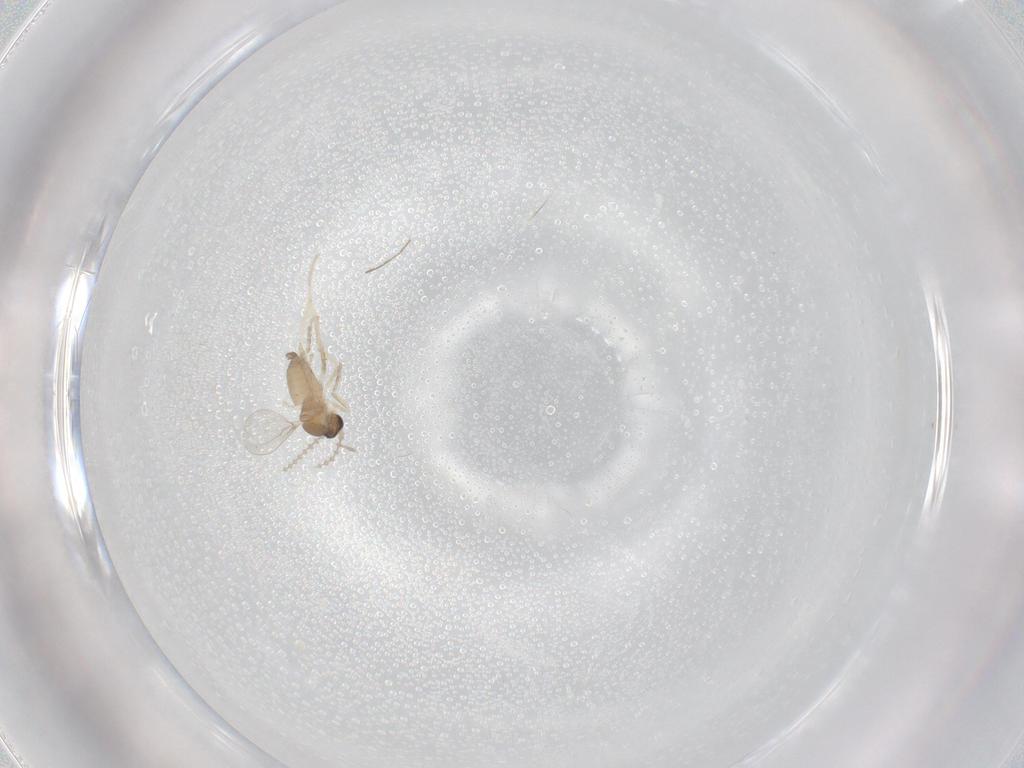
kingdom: Animalia
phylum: Arthropoda
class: Insecta
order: Diptera
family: Cecidomyiidae
